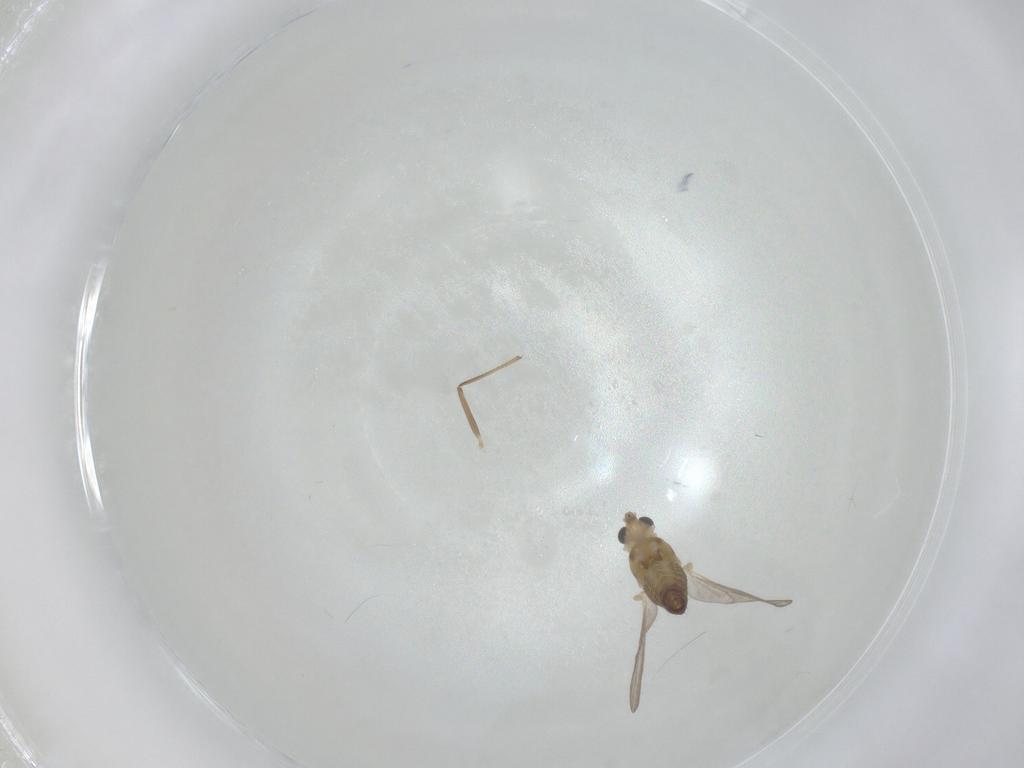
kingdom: Animalia
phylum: Arthropoda
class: Insecta
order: Diptera
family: Chironomidae
